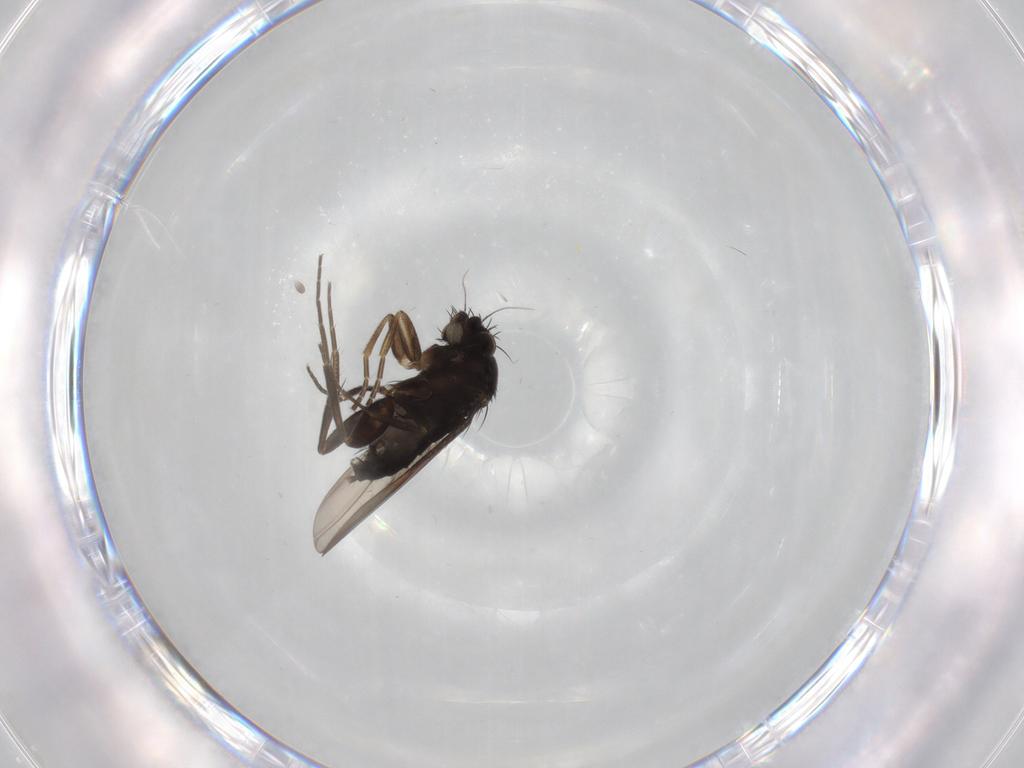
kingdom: Animalia
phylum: Arthropoda
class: Insecta
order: Diptera
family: Phoridae
